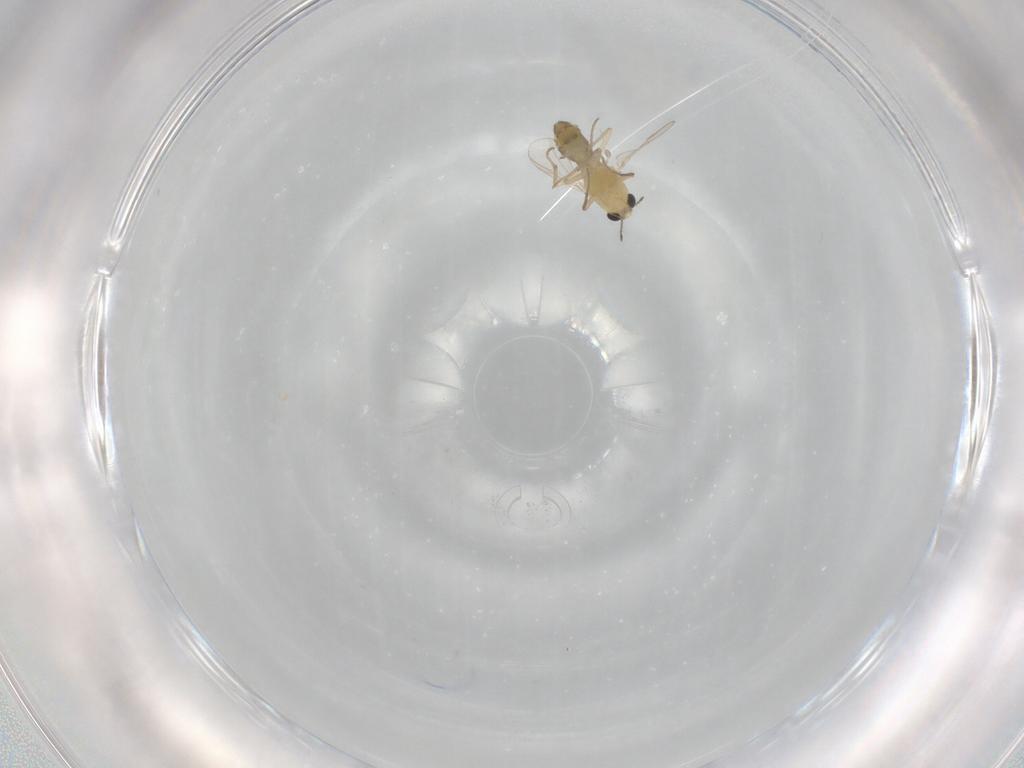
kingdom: Animalia
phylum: Arthropoda
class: Insecta
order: Diptera
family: Chironomidae
